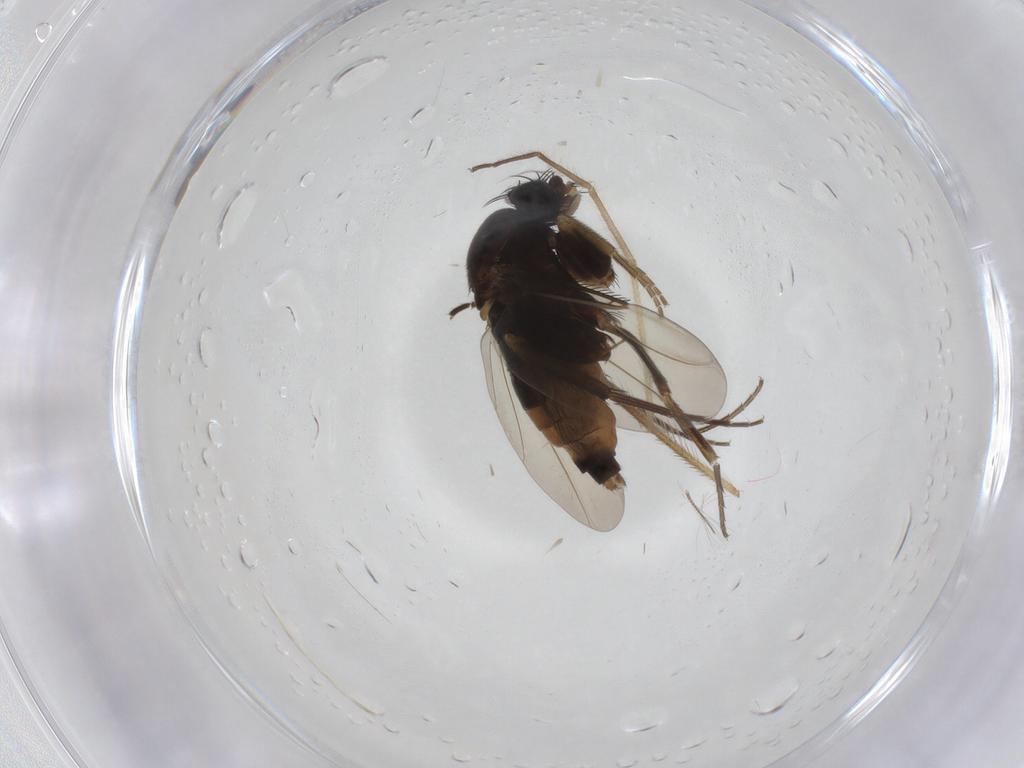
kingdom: Animalia
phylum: Arthropoda
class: Insecta
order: Diptera
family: Phoridae
